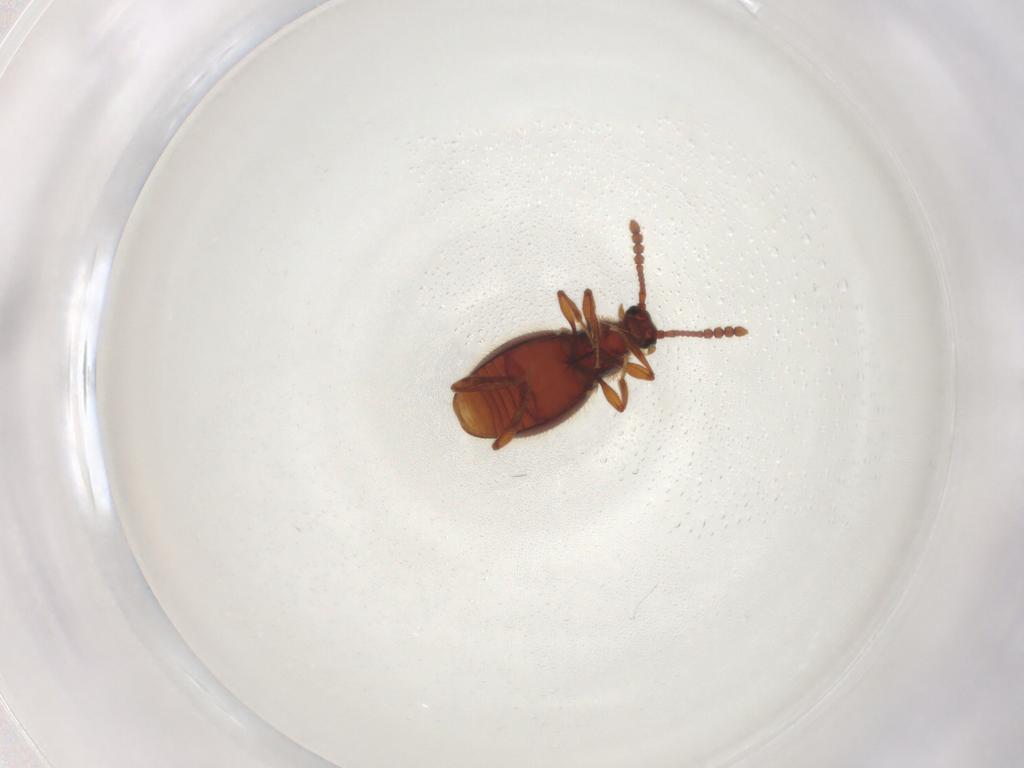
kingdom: Animalia
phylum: Arthropoda
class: Insecta
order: Coleoptera
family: Staphylinidae
